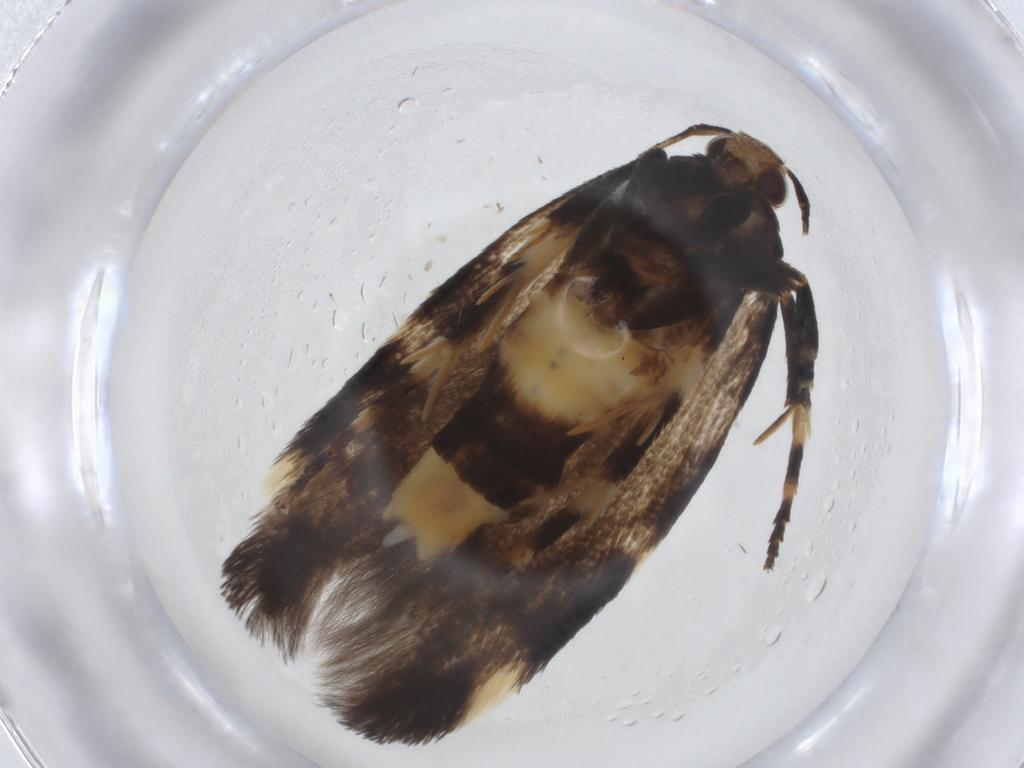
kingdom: Animalia
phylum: Arthropoda
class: Insecta
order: Lepidoptera
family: Cosmopterigidae
